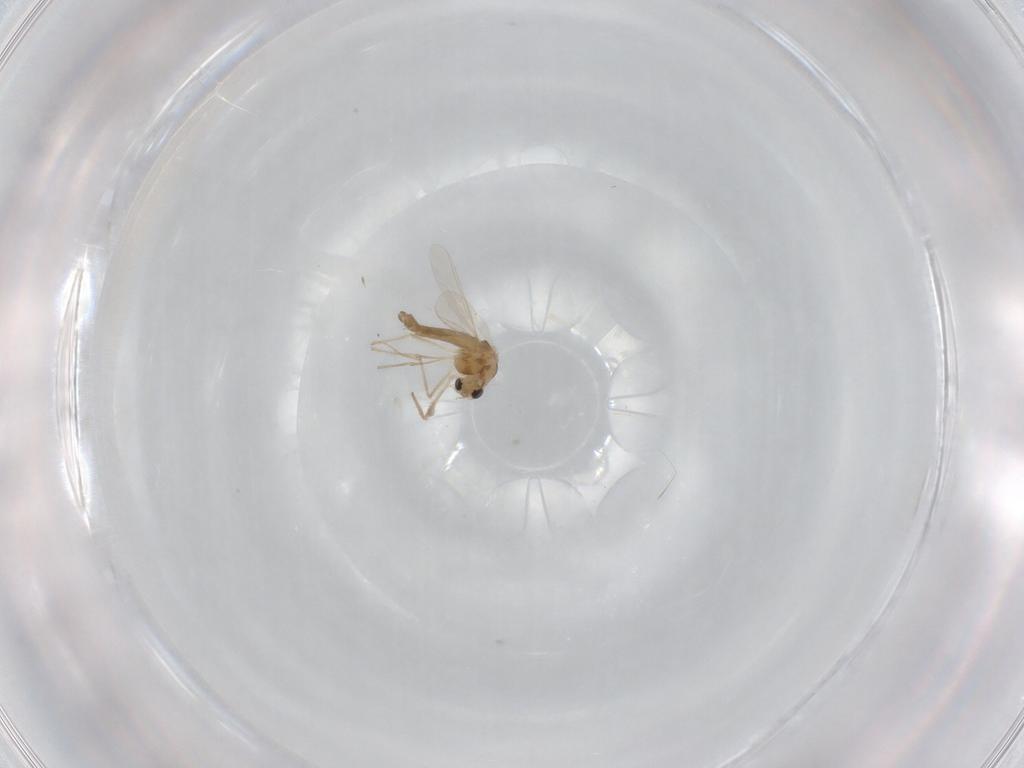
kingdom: Animalia
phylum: Arthropoda
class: Insecta
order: Diptera
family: Chironomidae
